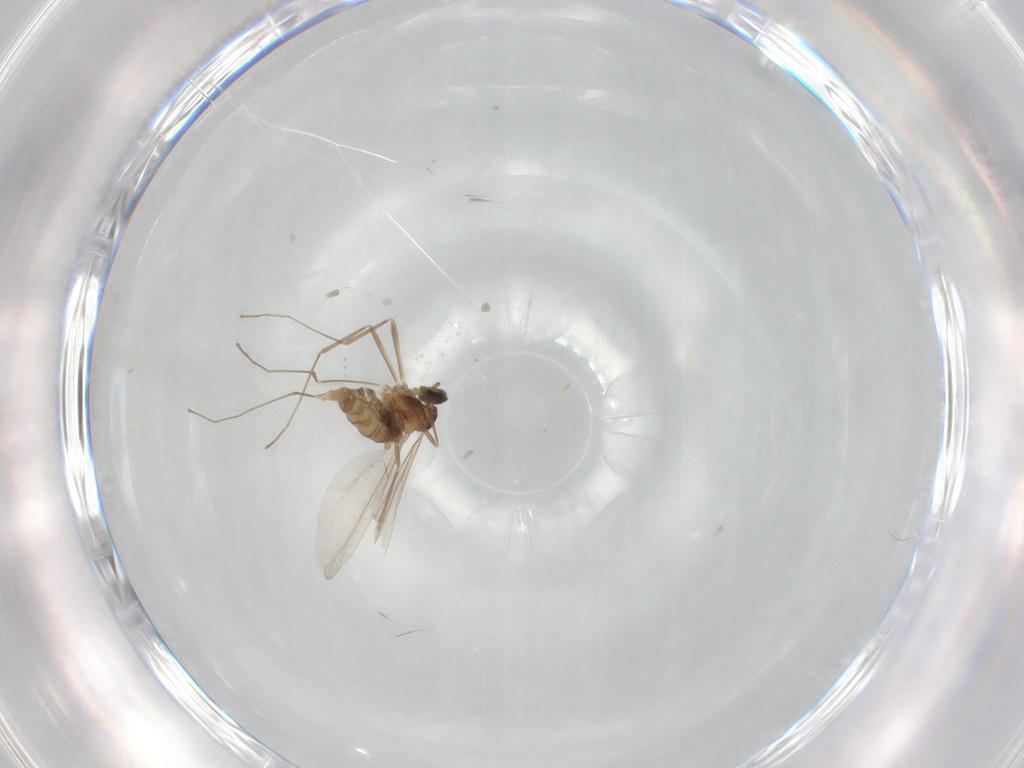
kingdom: Animalia
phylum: Arthropoda
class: Insecta
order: Diptera
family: Cecidomyiidae
